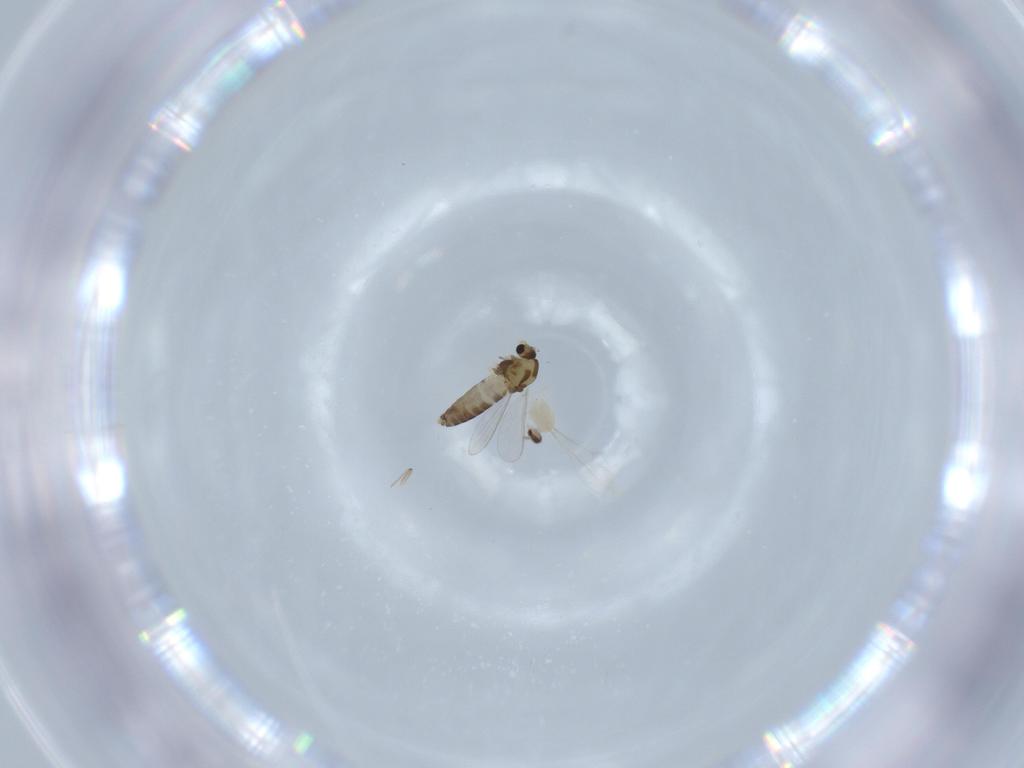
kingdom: Animalia
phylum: Arthropoda
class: Insecta
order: Diptera
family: Chironomidae
